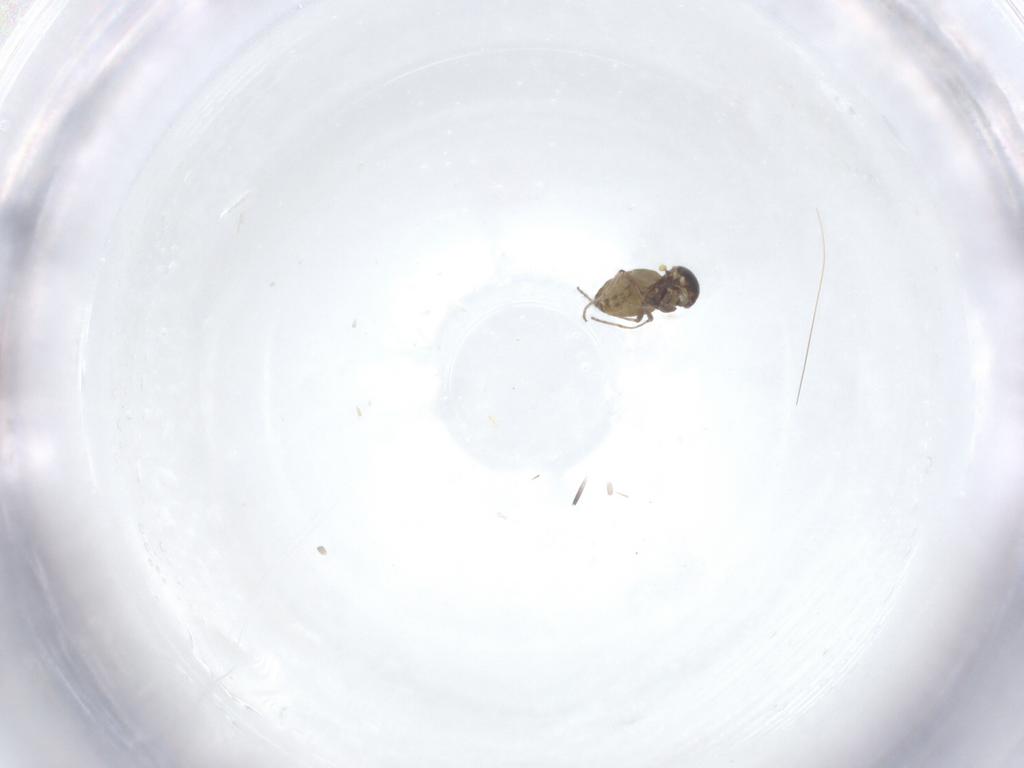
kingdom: Animalia
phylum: Arthropoda
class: Insecta
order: Diptera
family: Ceratopogonidae
